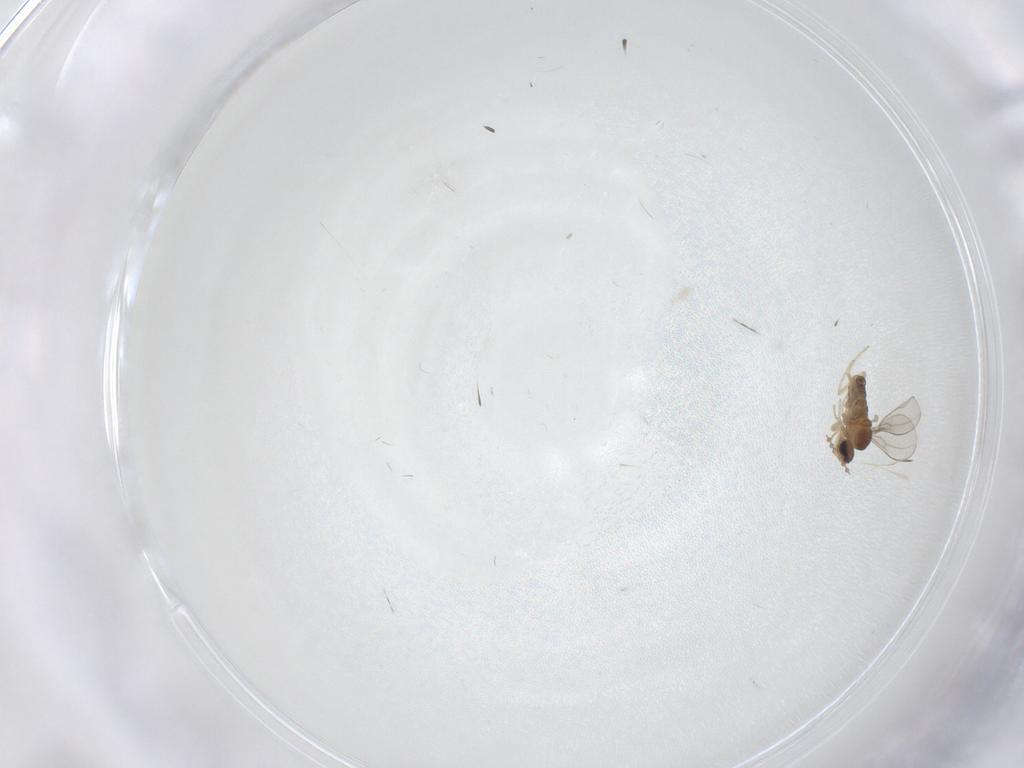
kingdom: Animalia
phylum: Arthropoda
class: Insecta
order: Diptera
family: Cecidomyiidae
